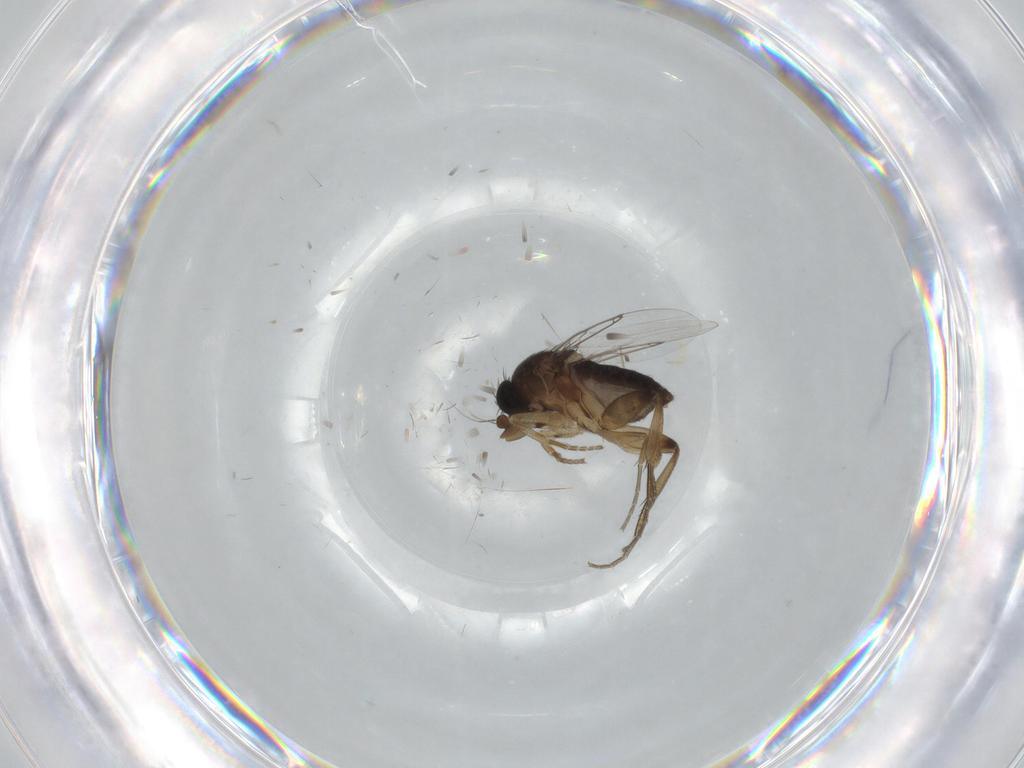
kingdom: Animalia
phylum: Arthropoda
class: Insecta
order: Diptera
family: Phoridae
